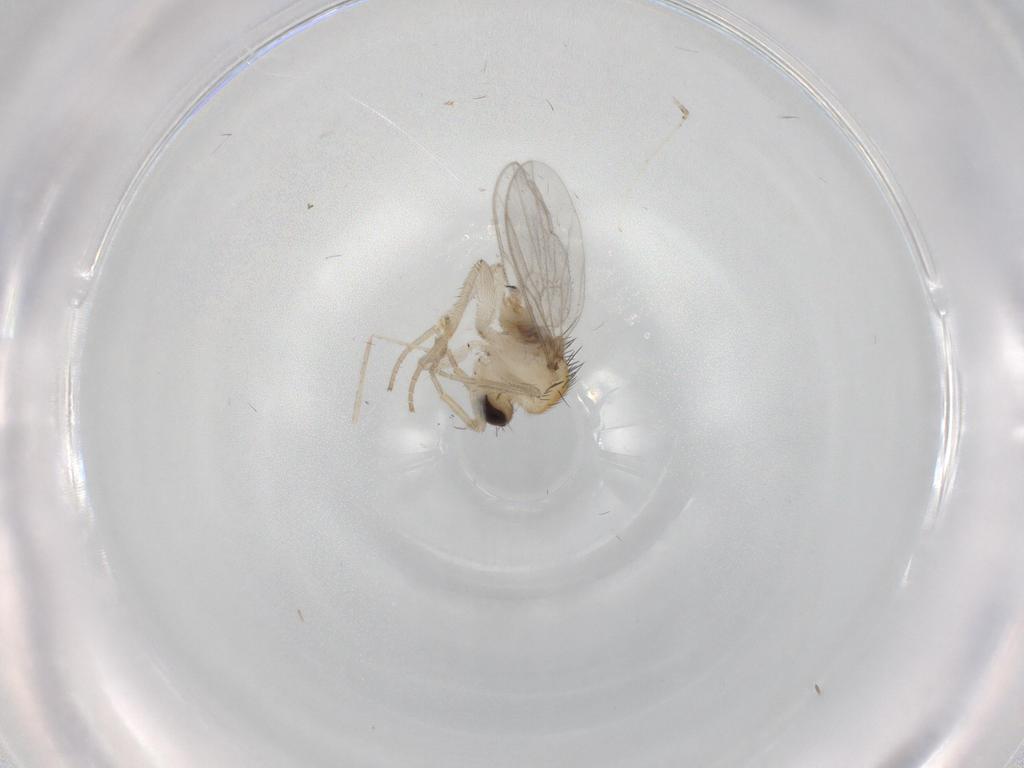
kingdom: Animalia
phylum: Arthropoda
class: Insecta
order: Diptera
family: Hybotidae
